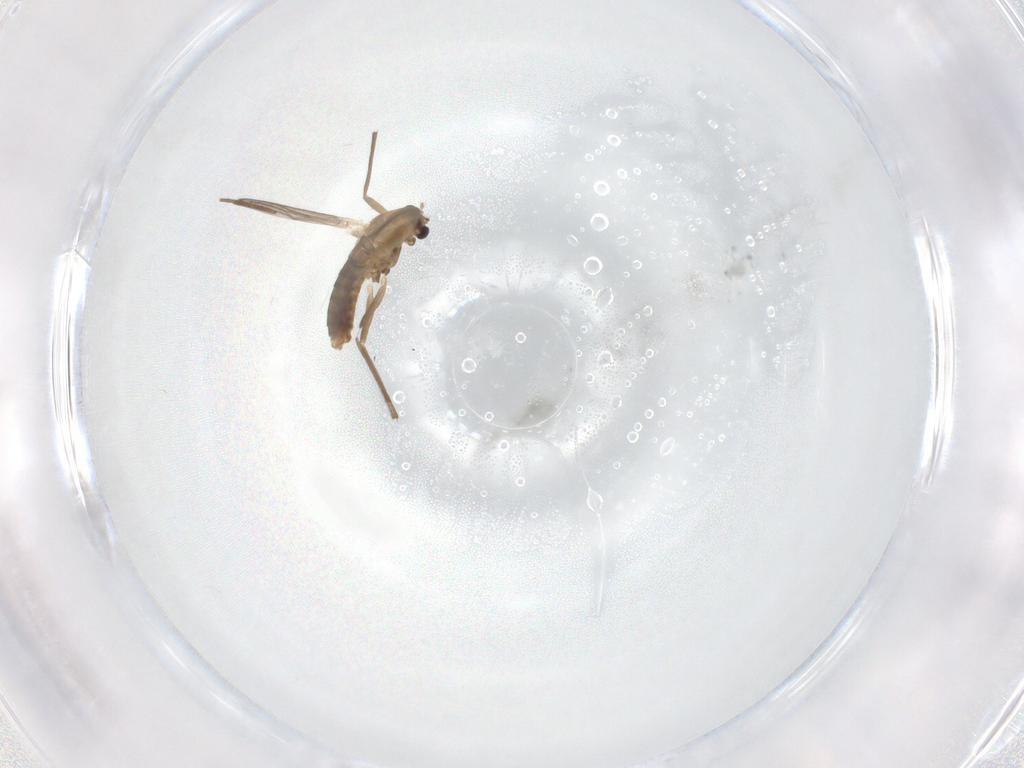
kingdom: Animalia
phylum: Arthropoda
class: Insecta
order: Diptera
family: Chironomidae
